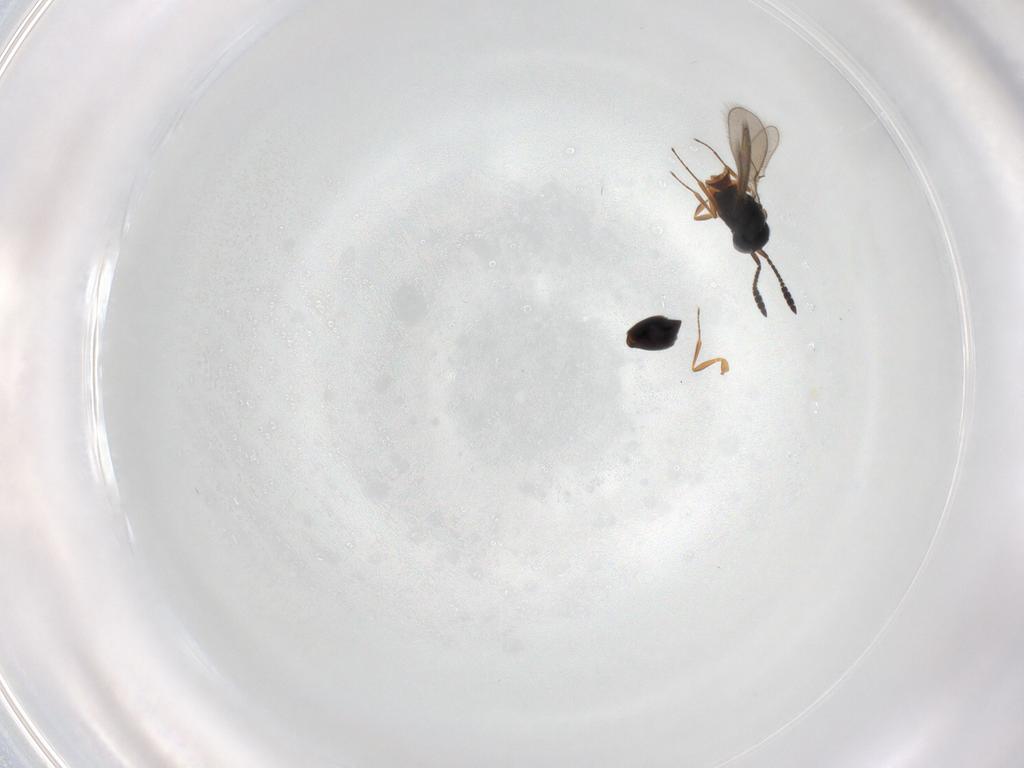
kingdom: Animalia
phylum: Arthropoda
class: Insecta
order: Hymenoptera
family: Scelionidae
